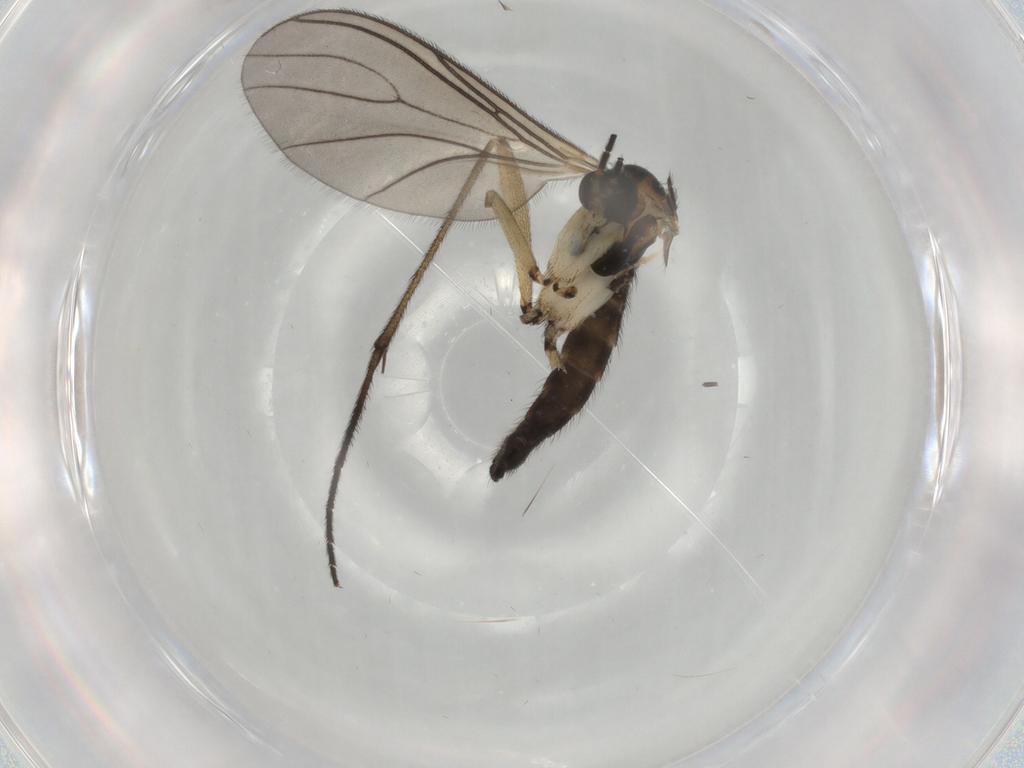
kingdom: Animalia
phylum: Arthropoda
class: Insecta
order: Diptera
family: Sciaridae
